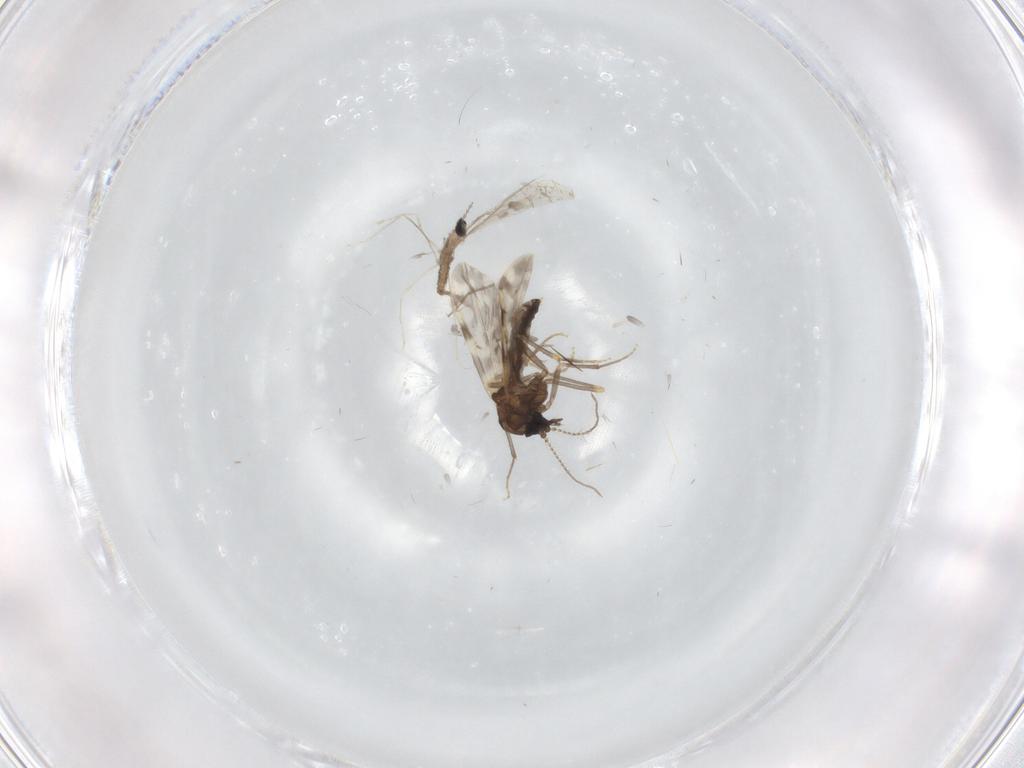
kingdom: Animalia
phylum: Arthropoda
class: Insecta
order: Diptera
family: Ceratopogonidae
